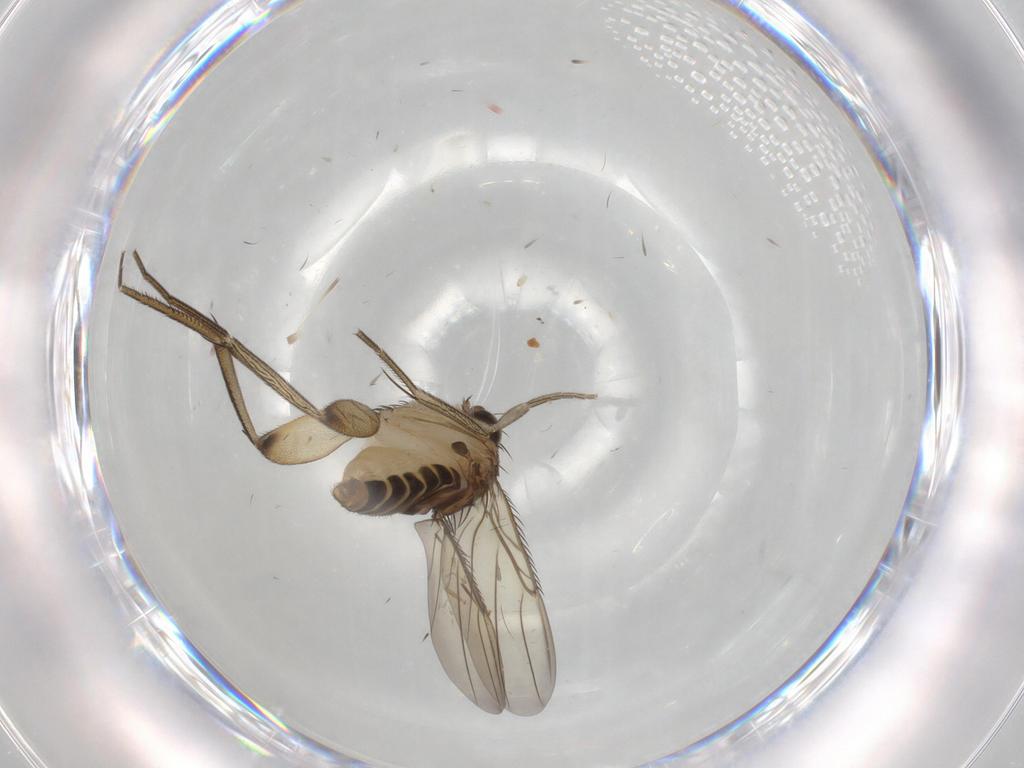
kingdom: Animalia
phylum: Arthropoda
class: Insecta
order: Diptera
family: Phoridae
